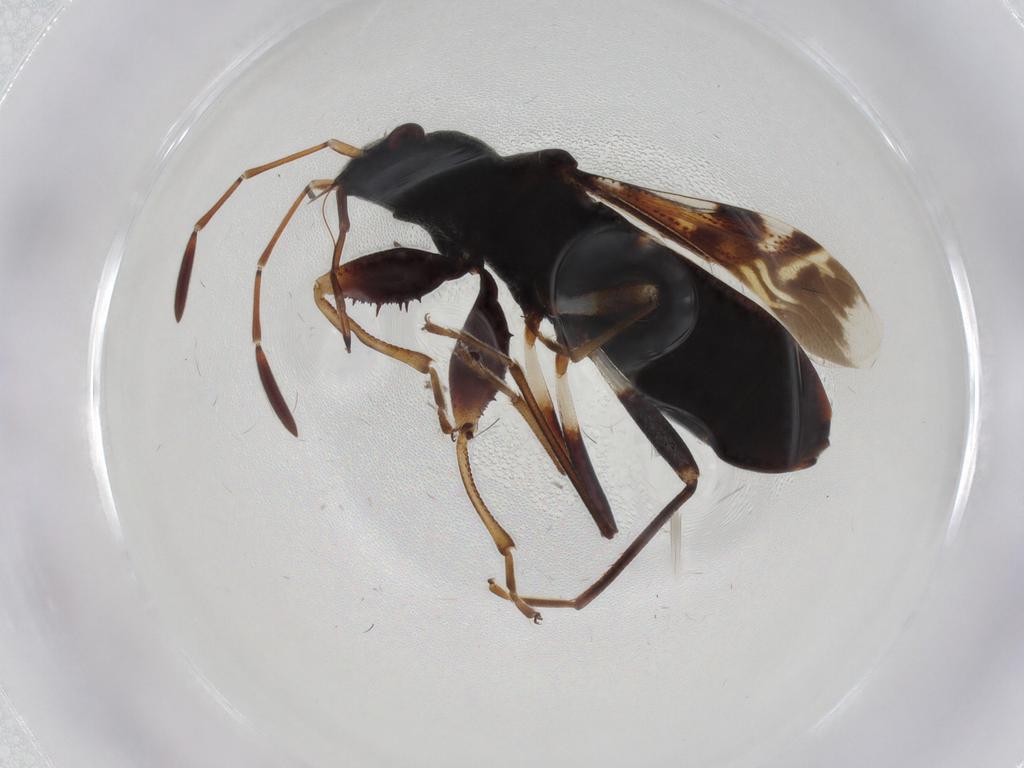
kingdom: Animalia
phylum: Arthropoda
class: Insecta
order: Hemiptera
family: Rhyparochromidae
